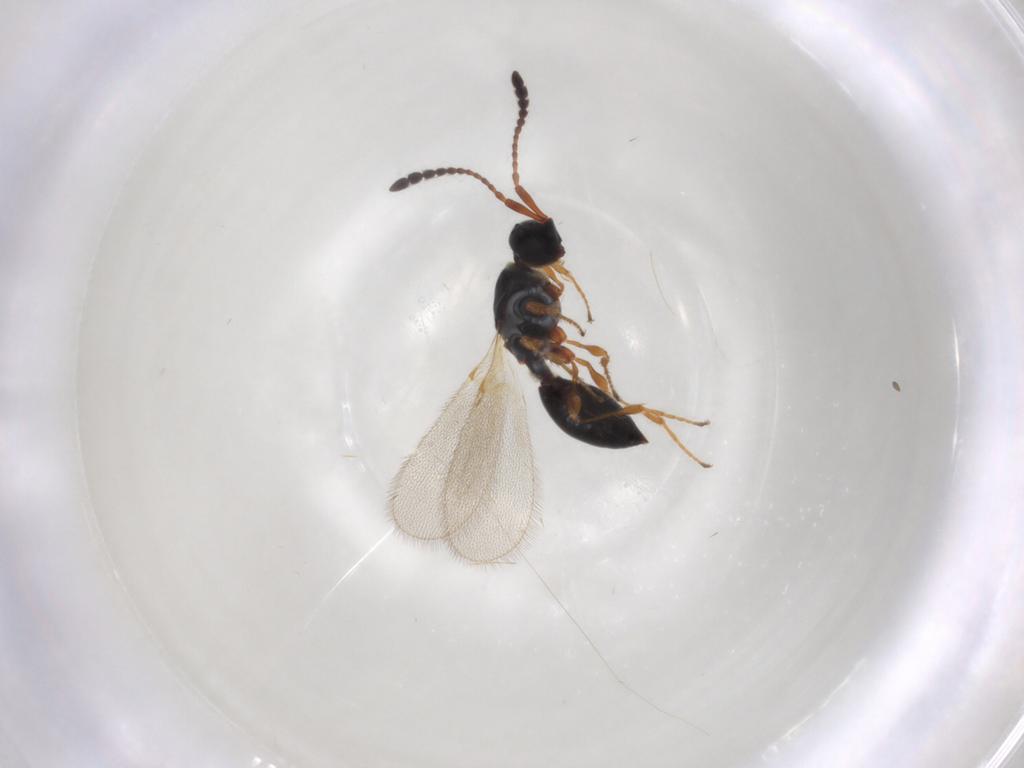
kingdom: Animalia
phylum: Arthropoda
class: Insecta
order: Hymenoptera
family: Diapriidae
